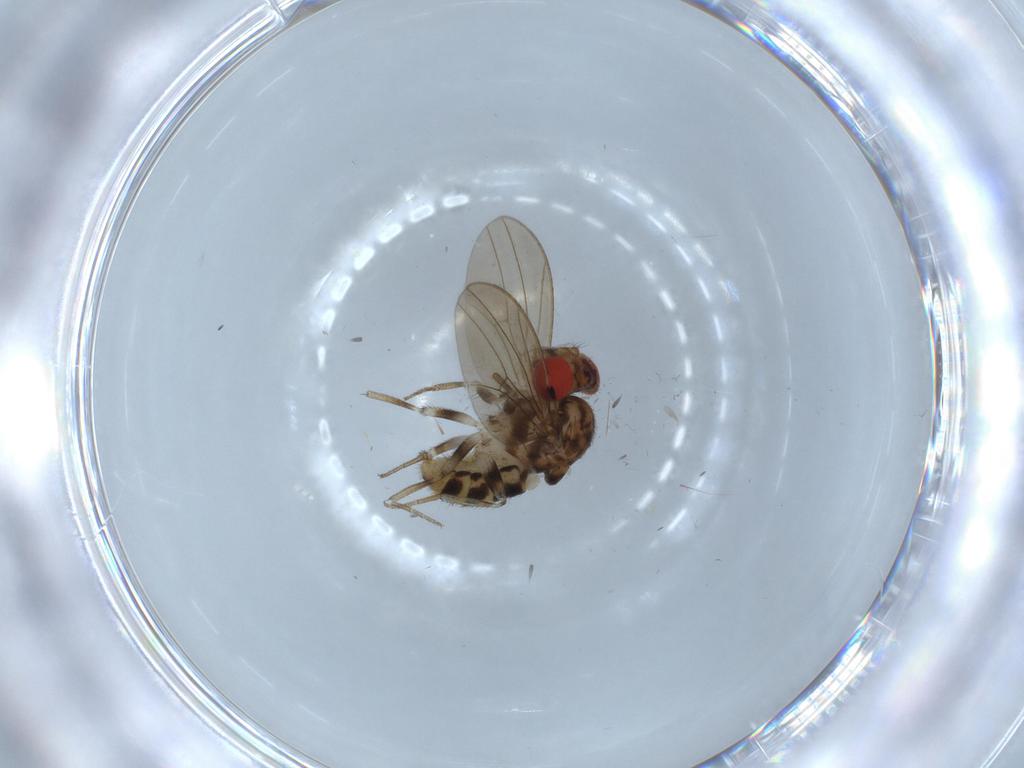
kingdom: Animalia
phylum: Arthropoda
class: Insecta
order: Diptera
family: Drosophilidae
